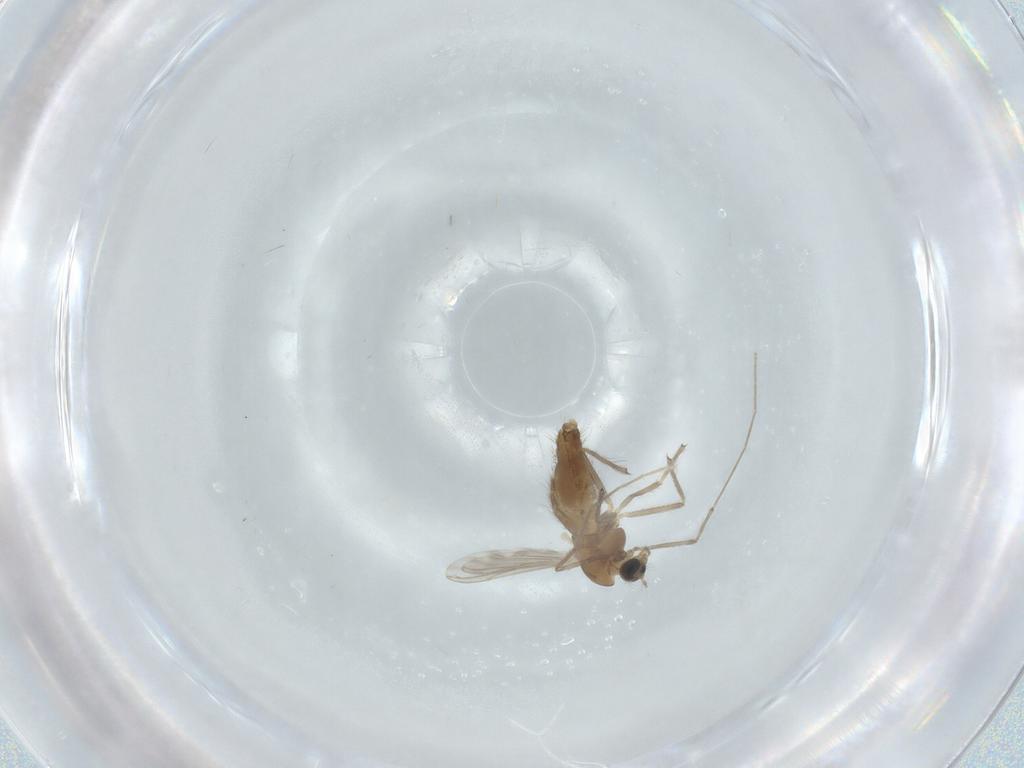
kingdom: Animalia
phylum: Arthropoda
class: Insecta
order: Diptera
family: Chironomidae
